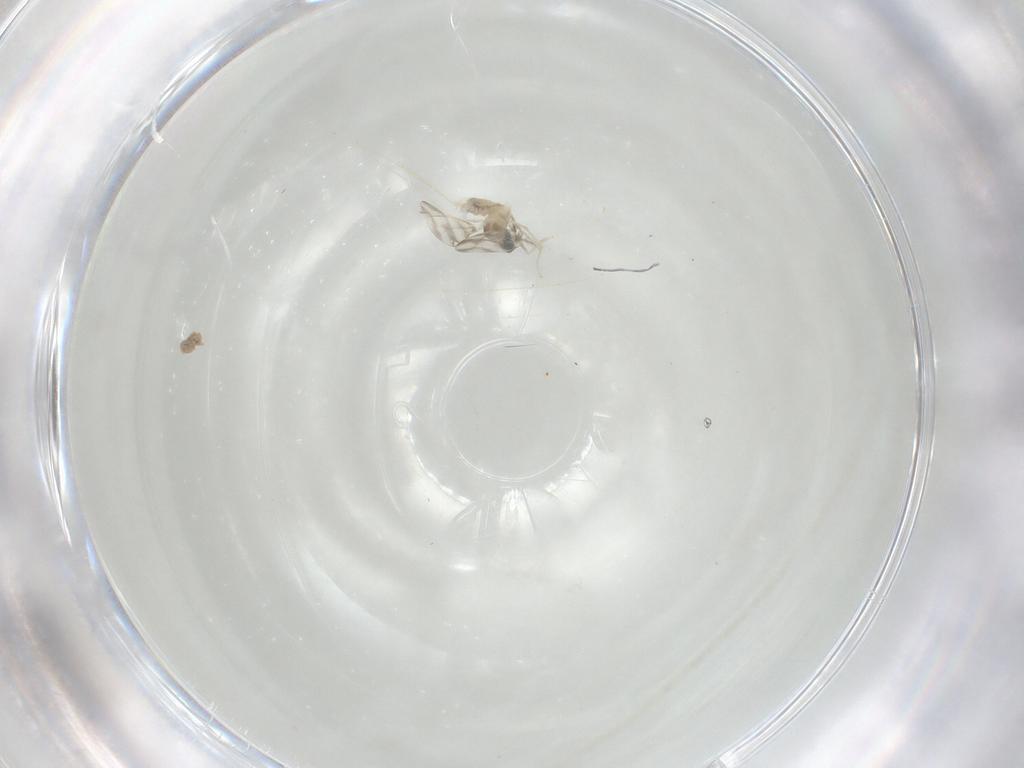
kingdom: Animalia
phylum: Arthropoda
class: Insecta
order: Diptera
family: Cecidomyiidae
